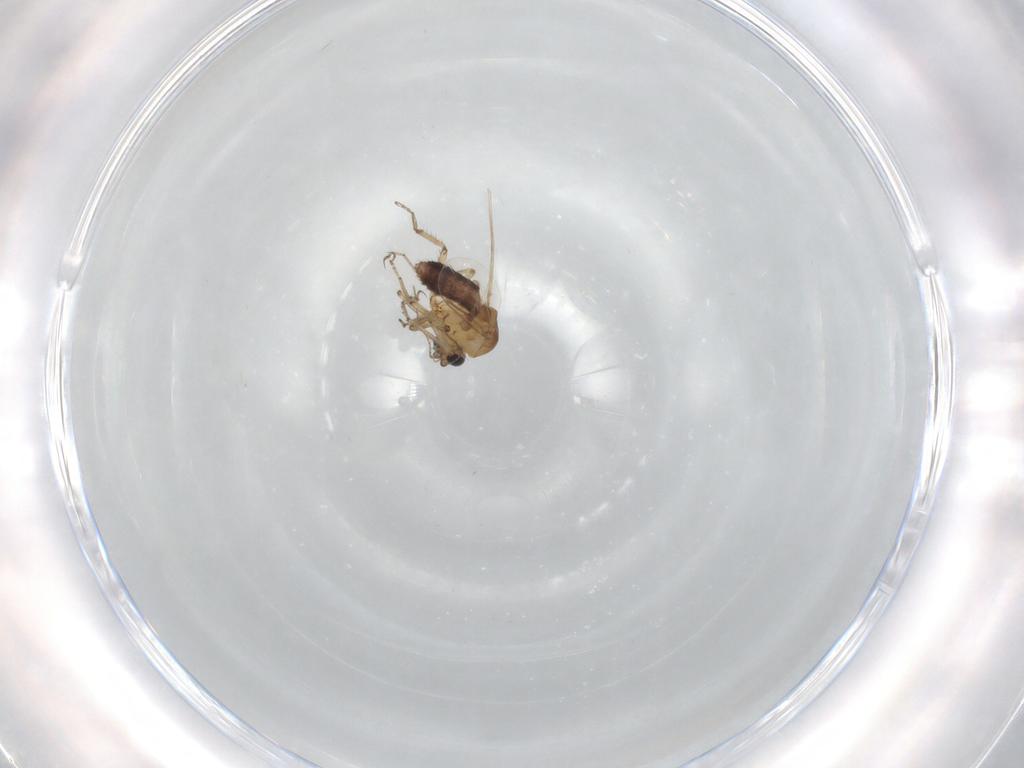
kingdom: Animalia
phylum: Arthropoda
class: Insecta
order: Diptera
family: Ceratopogonidae
